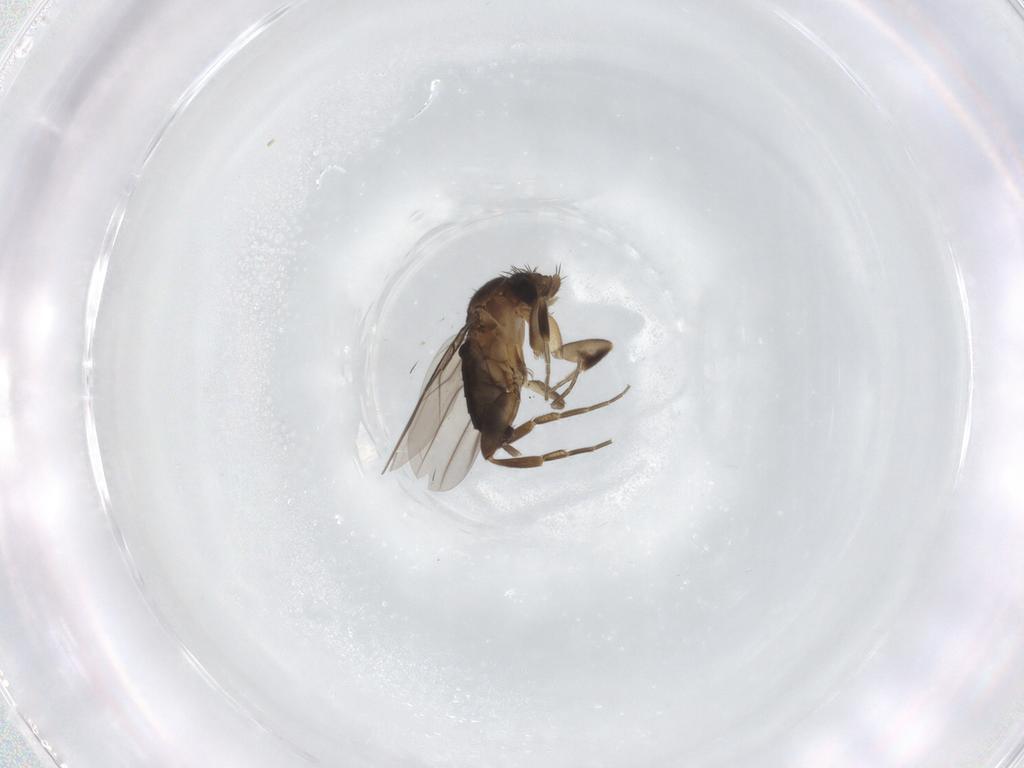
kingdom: Animalia
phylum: Arthropoda
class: Insecta
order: Diptera
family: Phoridae
